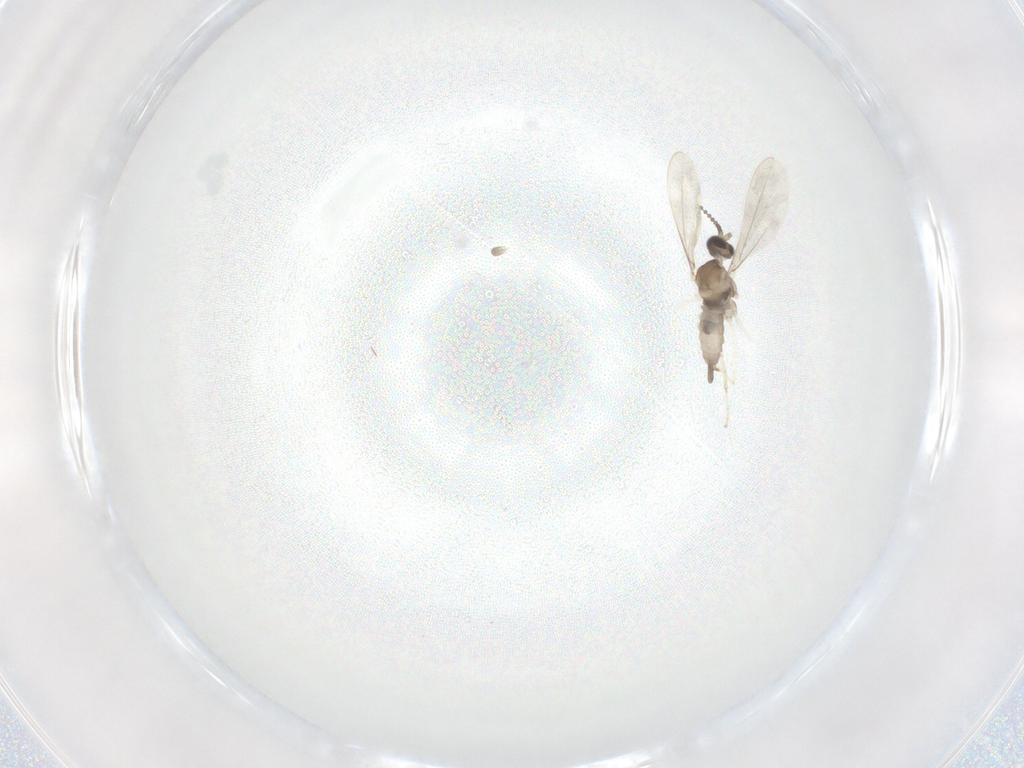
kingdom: Animalia
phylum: Arthropoda
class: Insecta
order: Diptera
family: Cecidomyiidae
